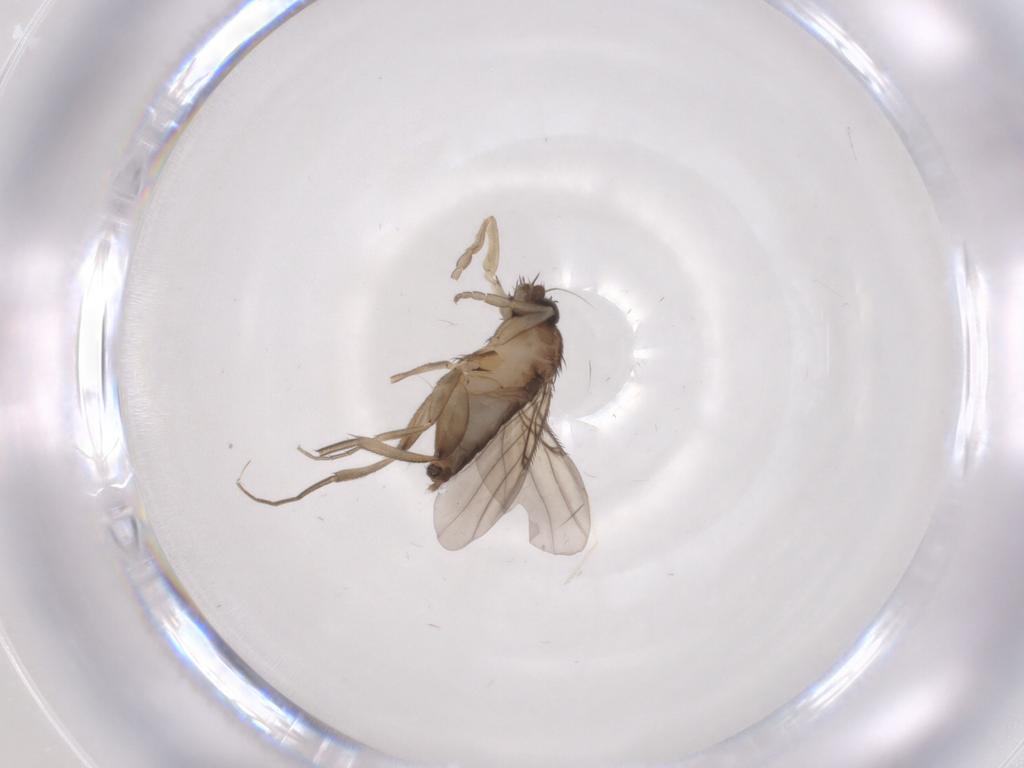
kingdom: Animalia
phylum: Arthropoda
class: Insecta
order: Diptera
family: Phoridae
